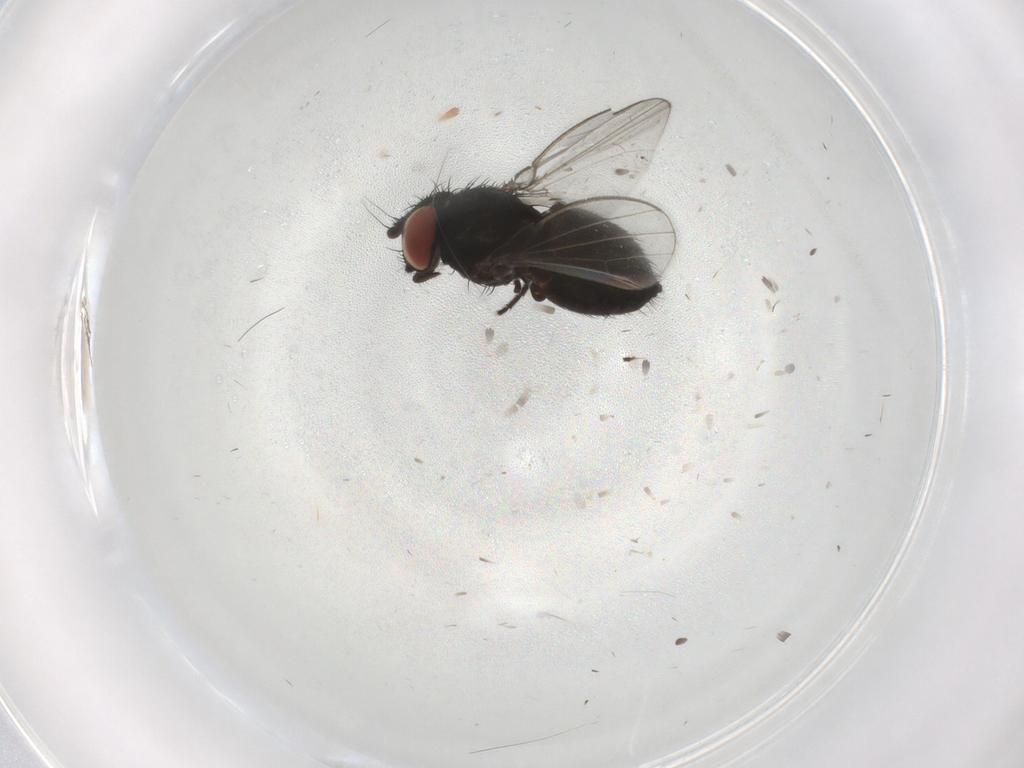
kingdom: Animalia
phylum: Arthropoda
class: Insecta
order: Diptera
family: Milichiidae
